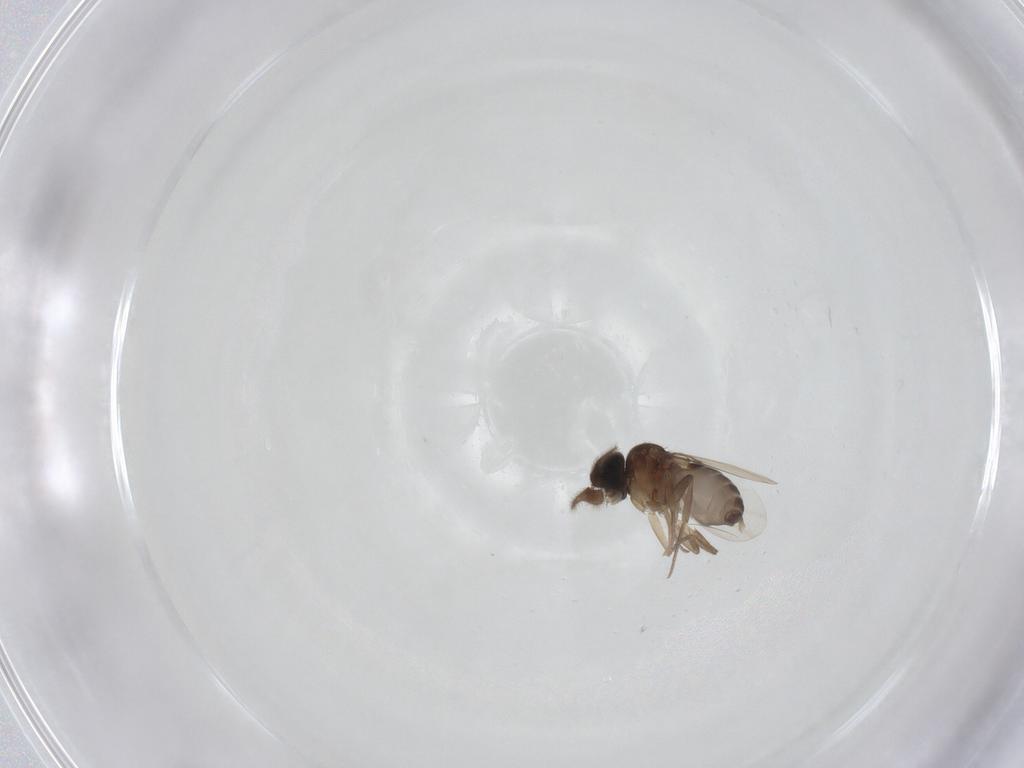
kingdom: Animalia
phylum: Arthropoda
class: Insecta
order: Diptera
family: Phoridae
